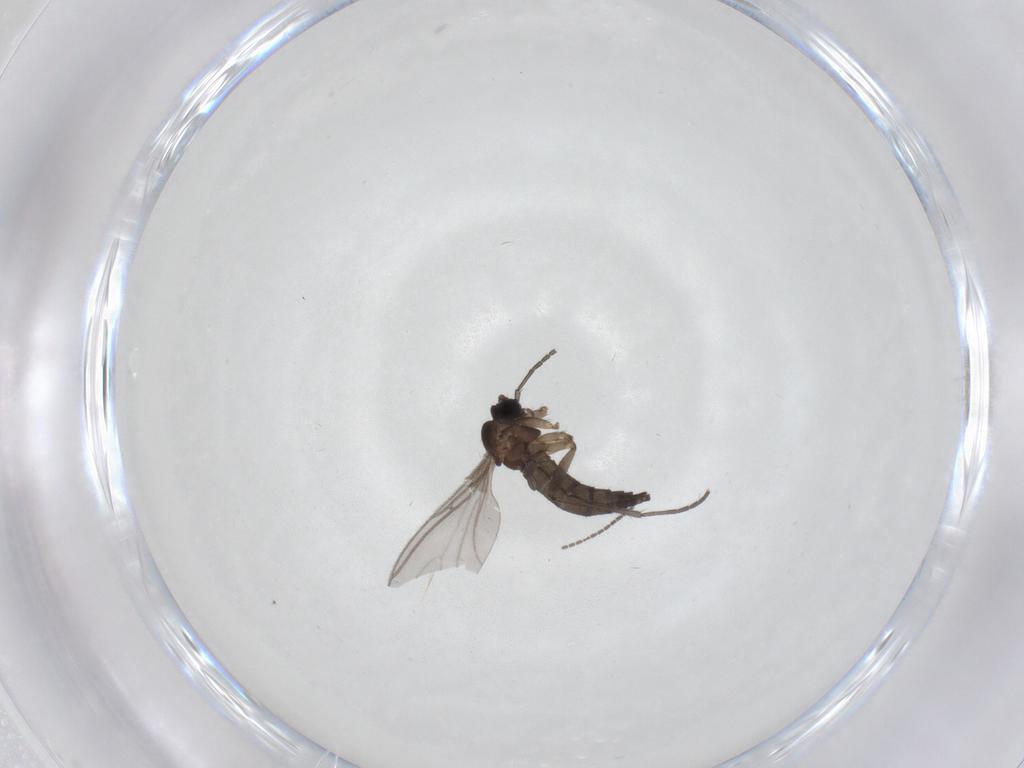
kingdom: Animalia
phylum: Arthropoda
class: Insecta
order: Diptera
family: Sciaridae
